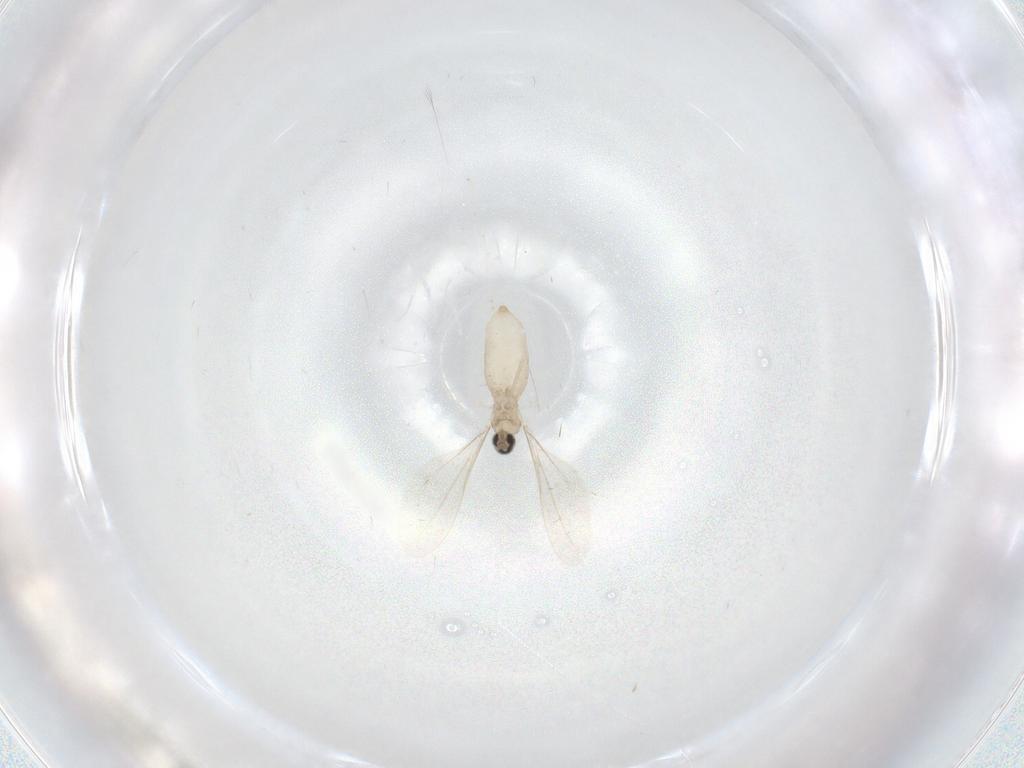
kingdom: Animalia
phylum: Arthropoda
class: Insecta
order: Diptera
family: Cecidomyiidae
